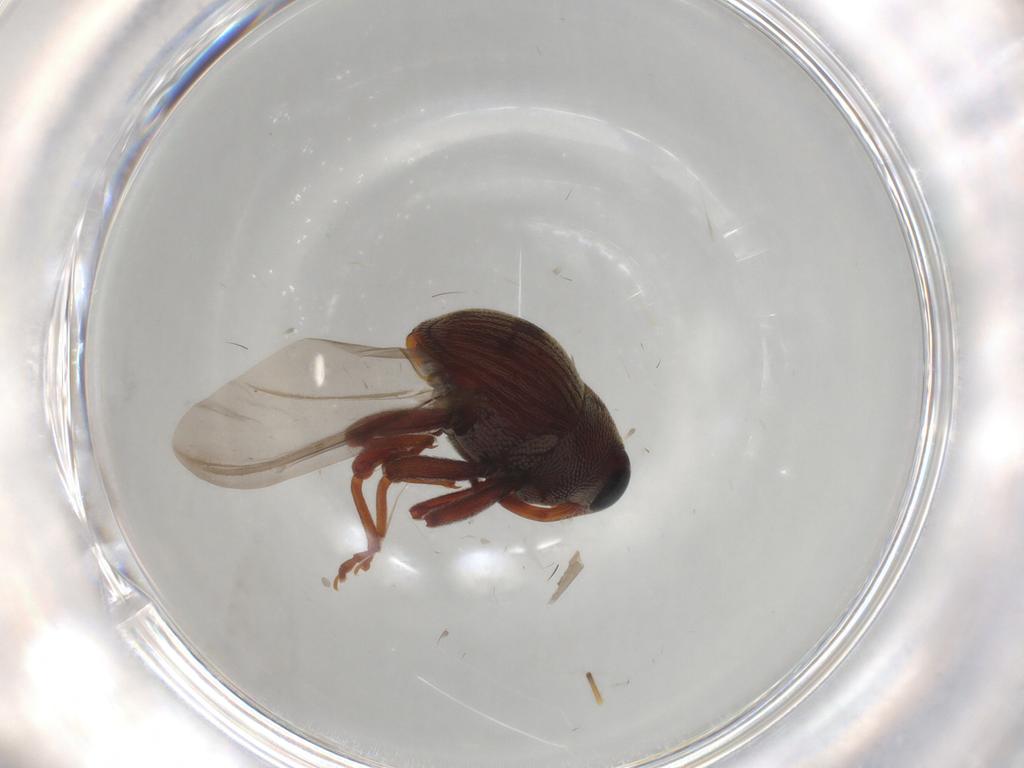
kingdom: Animalia
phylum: Arthropoda
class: Insecta
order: Coleoptera
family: Curculionidae
